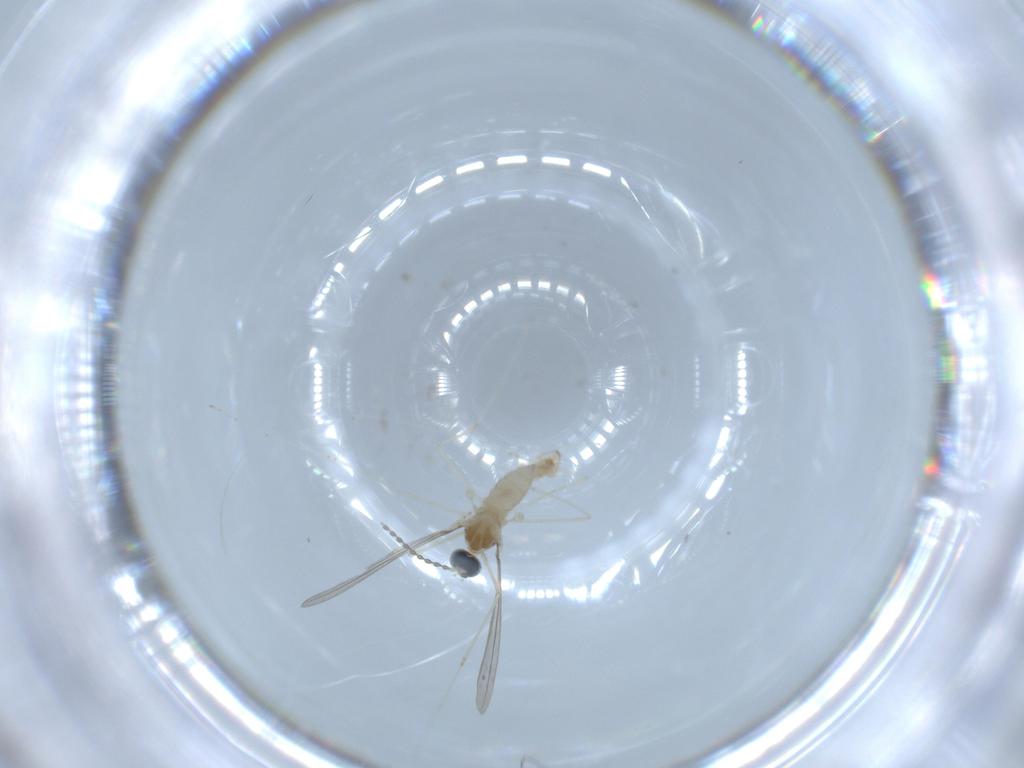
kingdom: Animalia
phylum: Arthropoda
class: Insecta
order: Diptera
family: Cecidomyiidae
